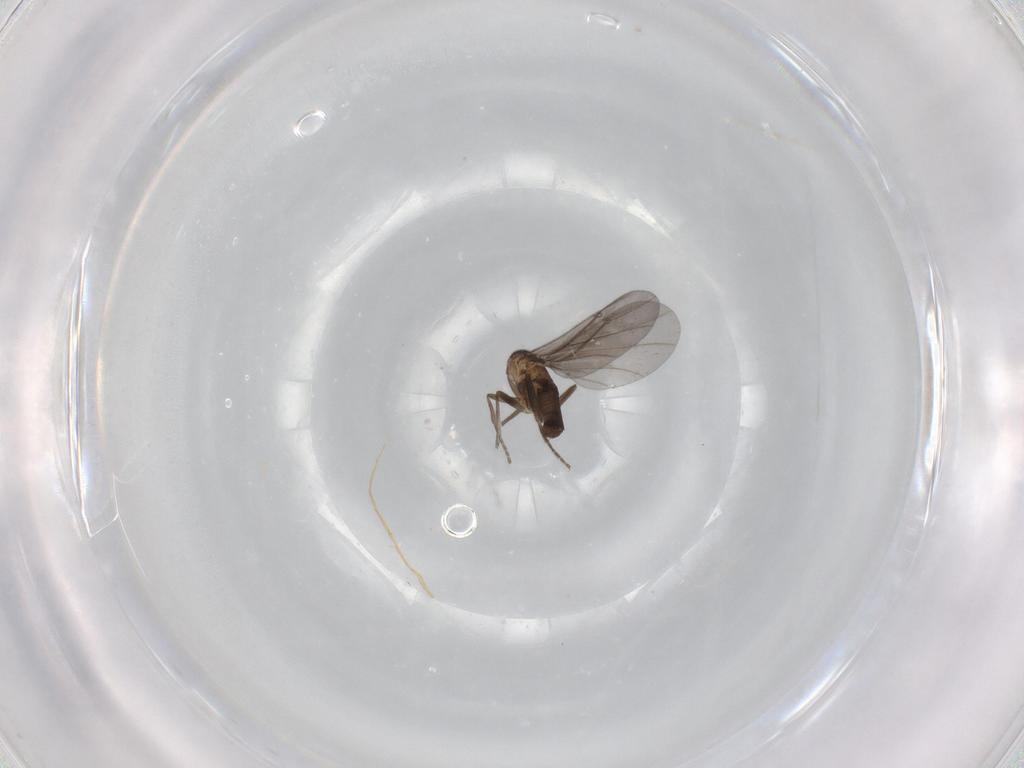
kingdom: Animalia
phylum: Arthropoda
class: Insecta
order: Diptera
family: Phoridae
